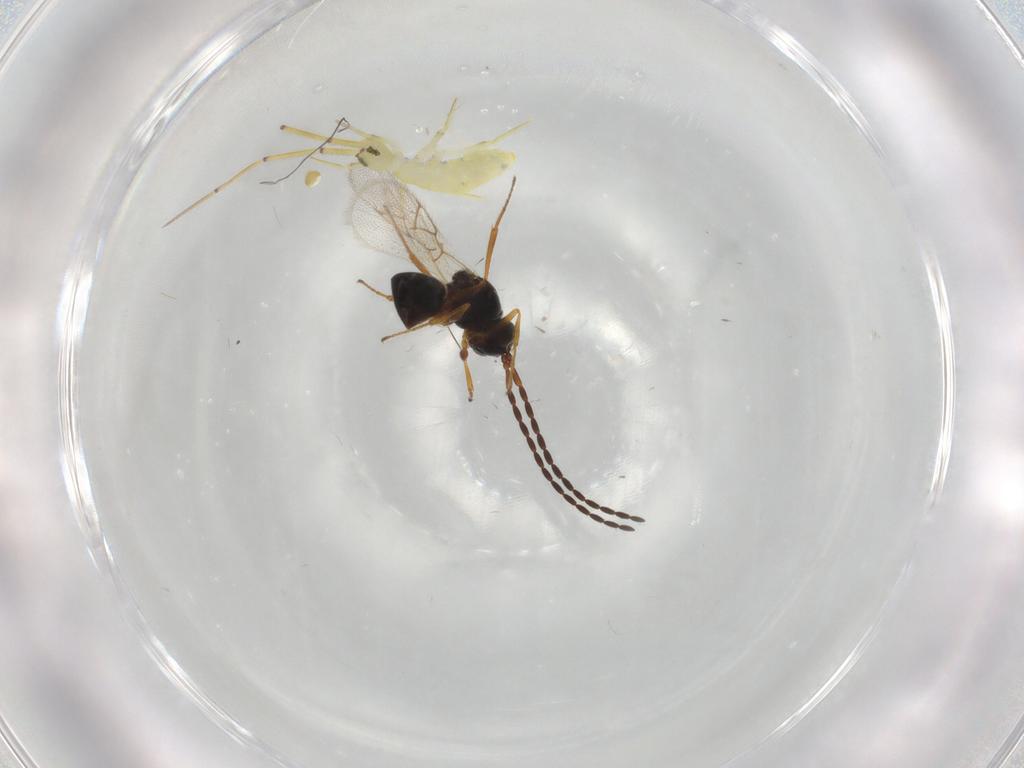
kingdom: Animalia
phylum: Arthropoda
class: Insecta
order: Hymenoptera
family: Figitidae
